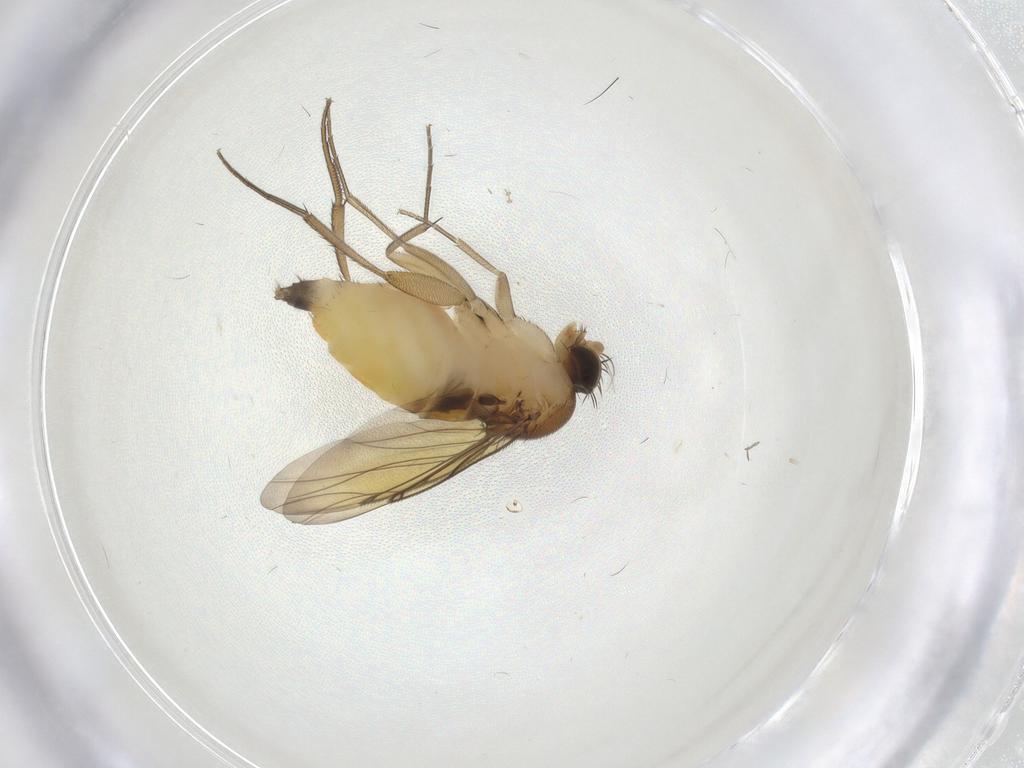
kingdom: Animalia
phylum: Arthropoda
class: Insecta
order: Diptera
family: Sciaridae
